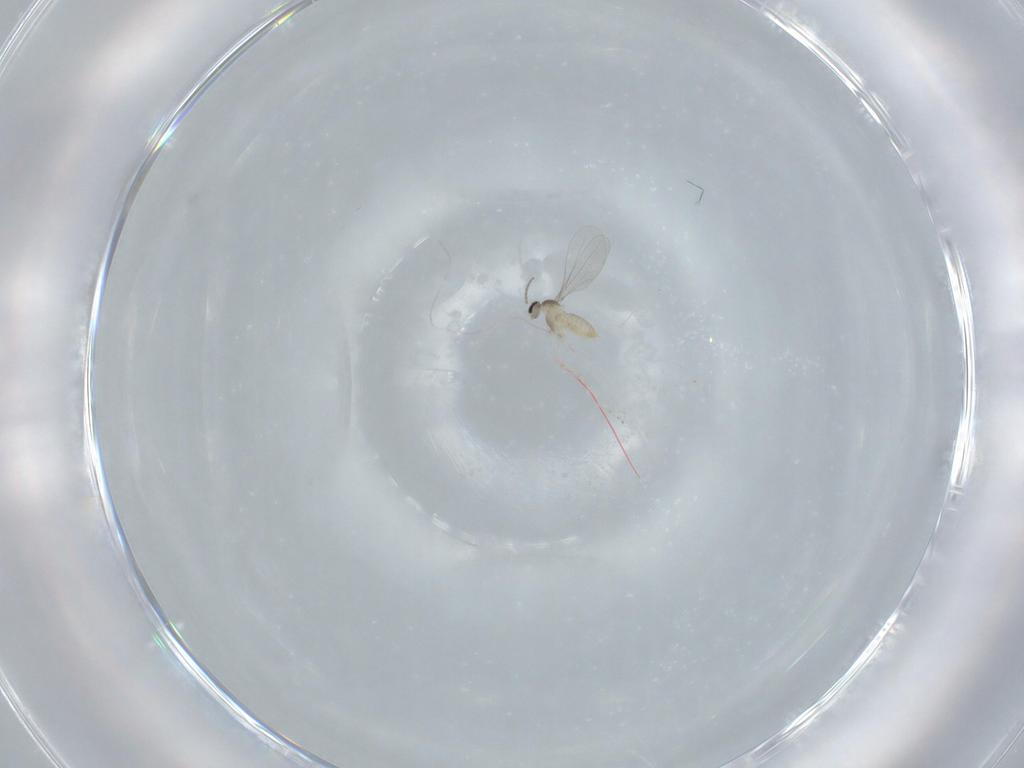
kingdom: Animalia
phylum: Arthropoda
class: Insecta
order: Diptera
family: Cecidomyiidae
